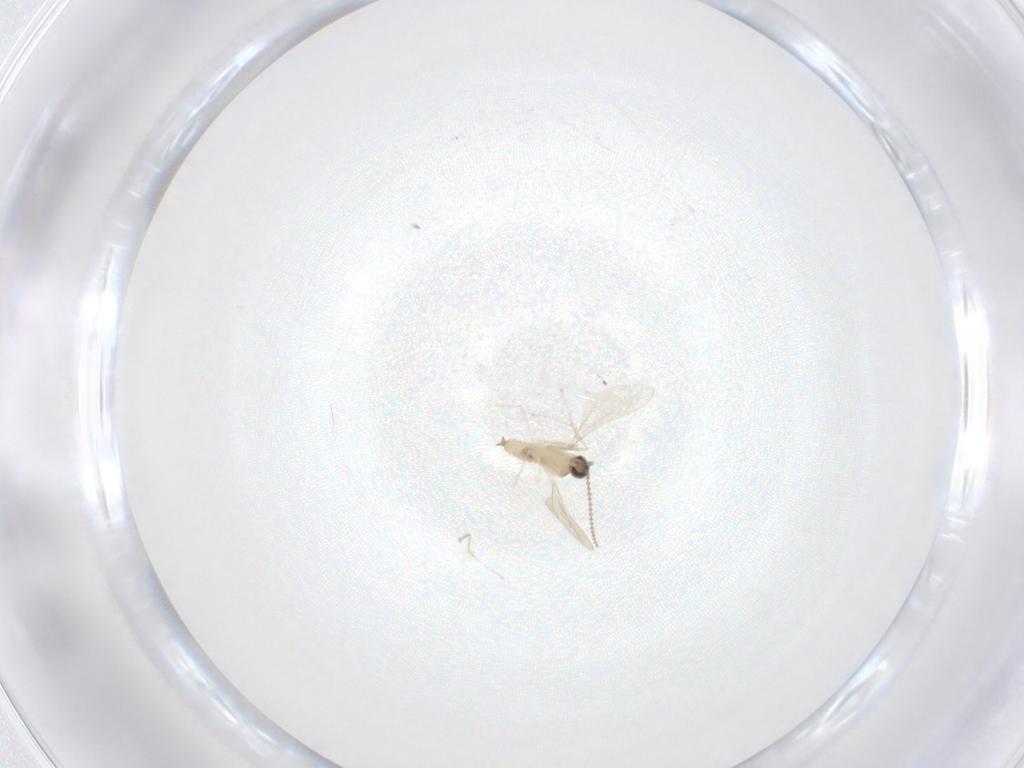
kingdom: Animalia
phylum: Arthropoda
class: Insecta
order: Diptera
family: Cecidomyiidae
